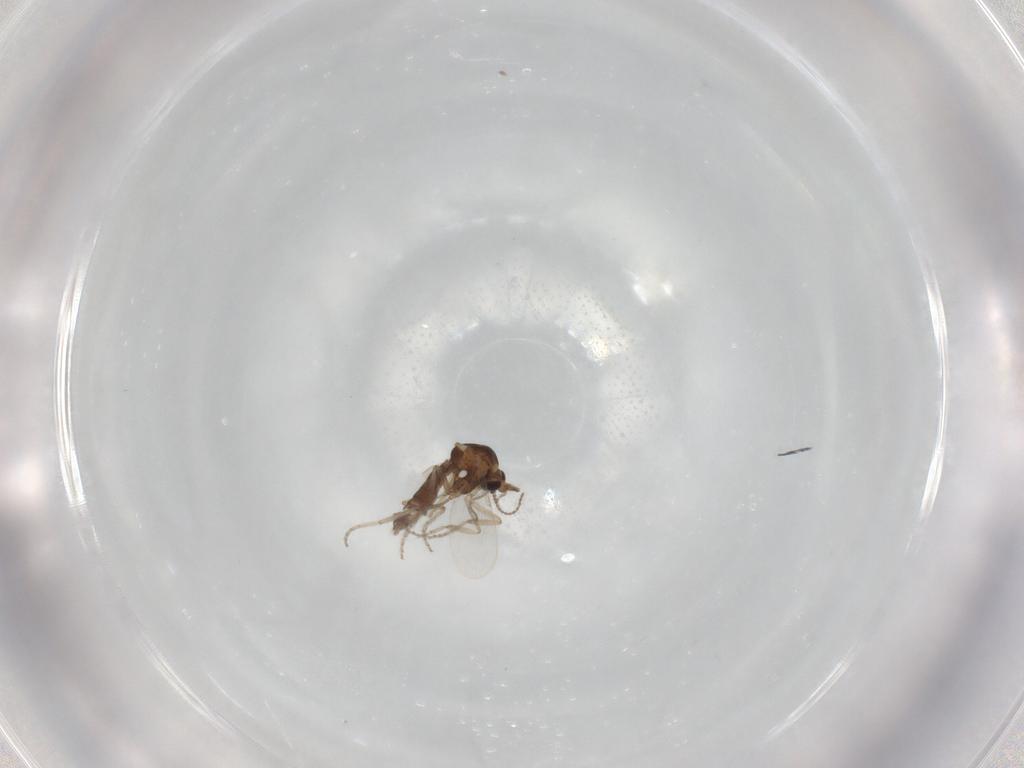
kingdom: Animalia
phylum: Arthropoda
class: Insecta
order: Diptera
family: Ceratopogonidae
